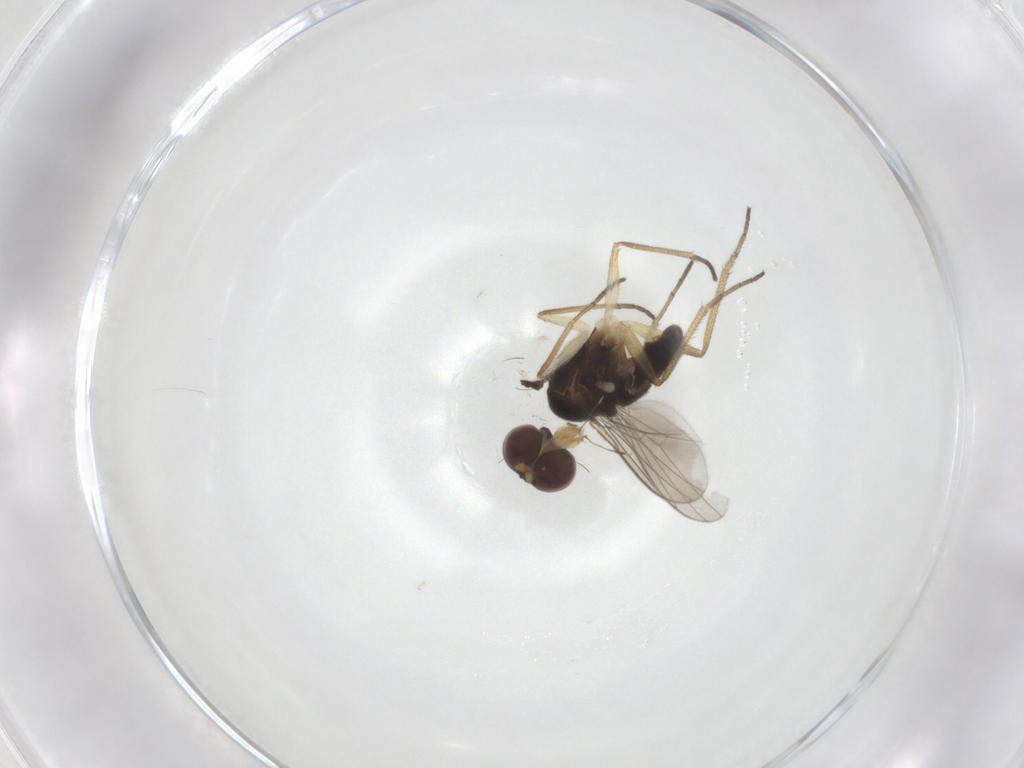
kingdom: Animalia
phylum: Arthropoda
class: Insecta
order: Diptera
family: Dolichopodidae
